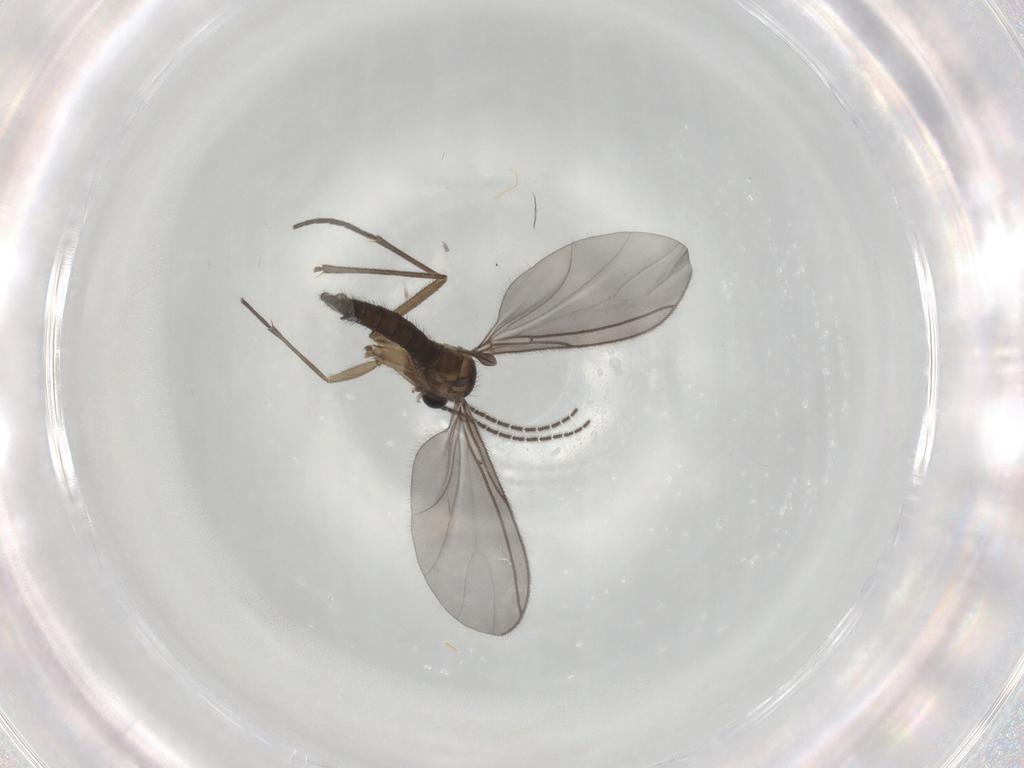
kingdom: Animalia
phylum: Arthropoda
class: Insecta
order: Diptera
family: Sciaridae
